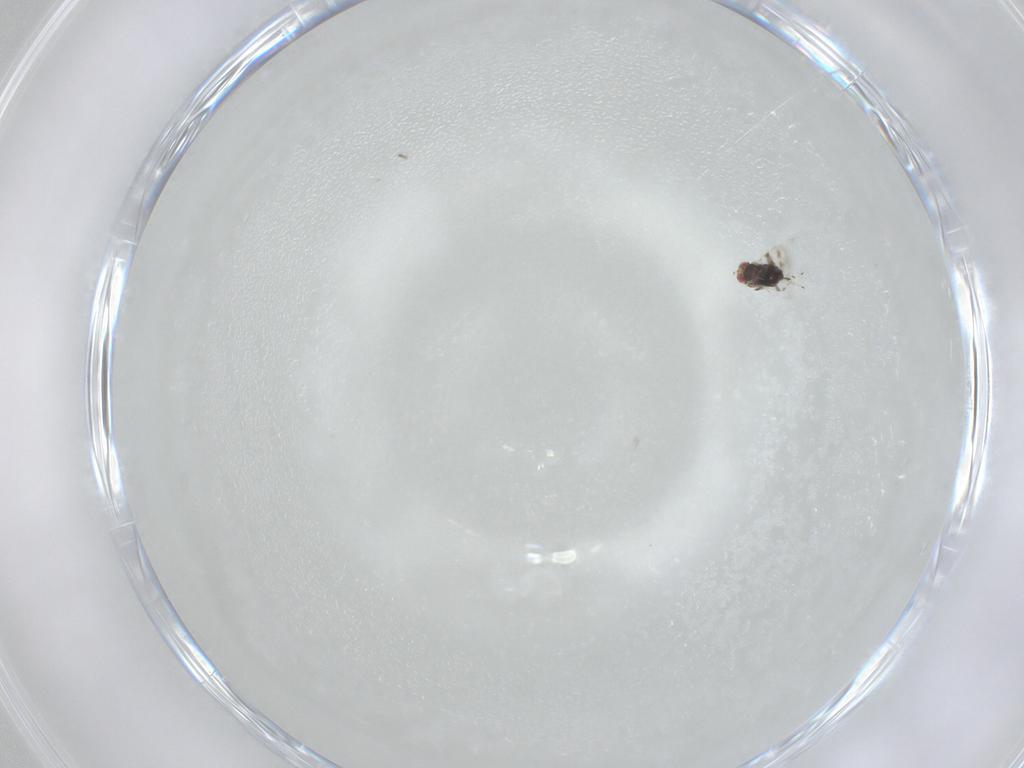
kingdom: Animalia
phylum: Arthropoda
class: Insecta
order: Hymenoptera
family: Azotidae
